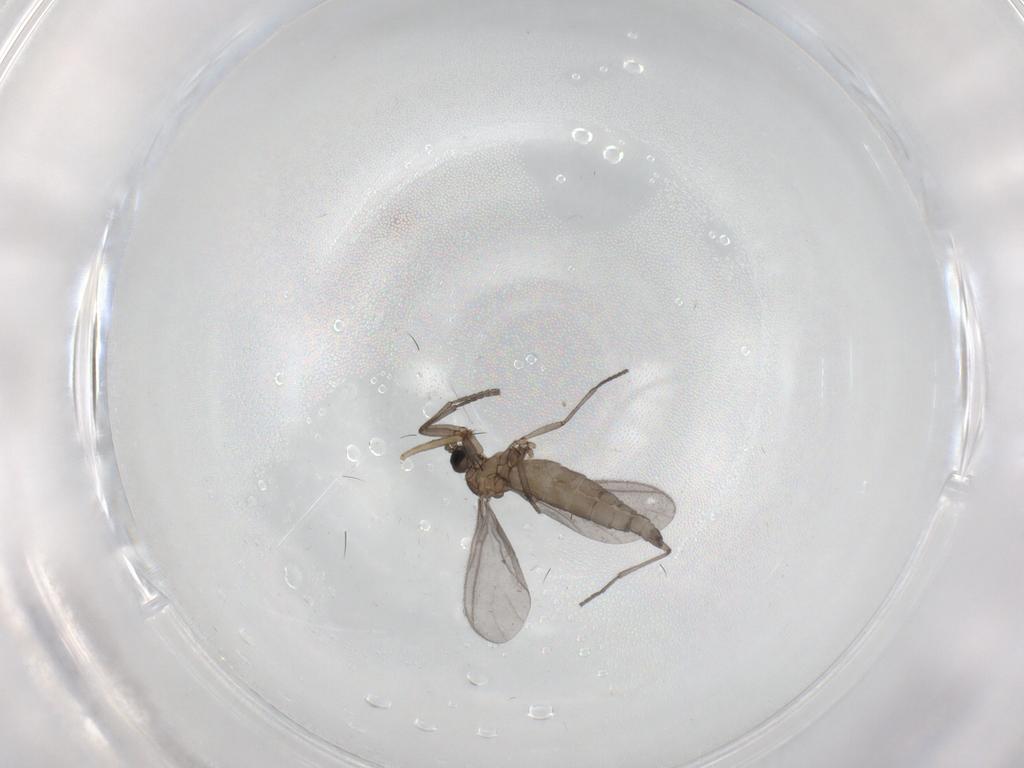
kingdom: Animalia
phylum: Arthropoda
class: Insecta
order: Diptera
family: Sciaridae
